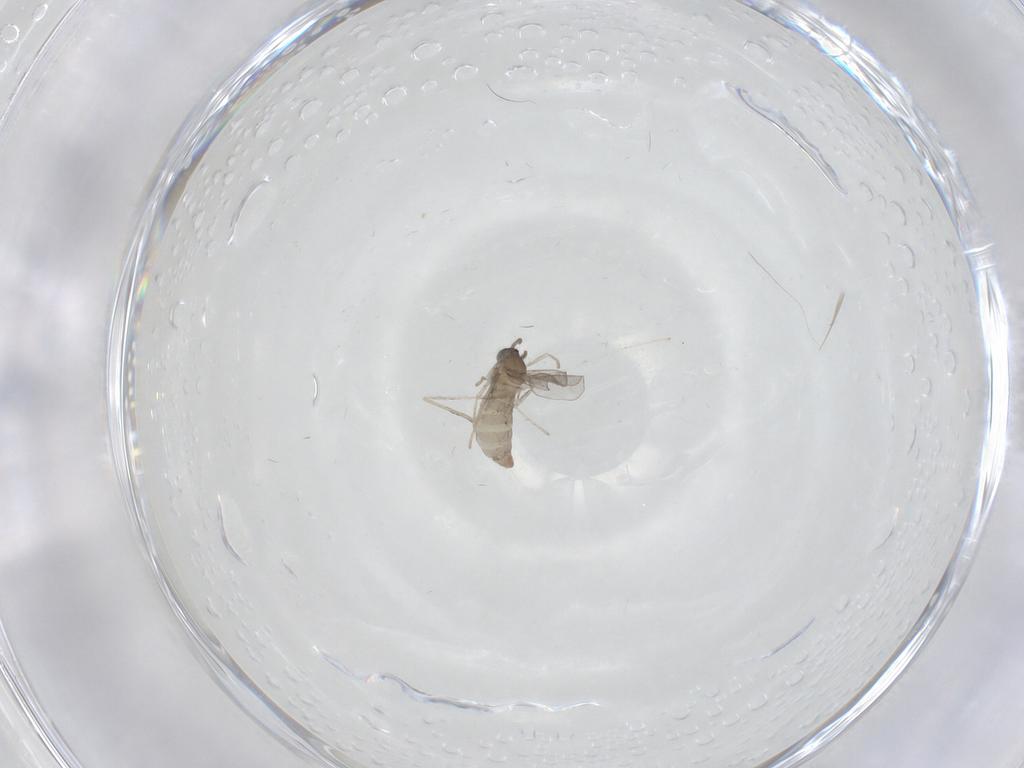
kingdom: Animalia
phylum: Arthropoda
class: Insecta
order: Diptera
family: Cecidomyiidae
